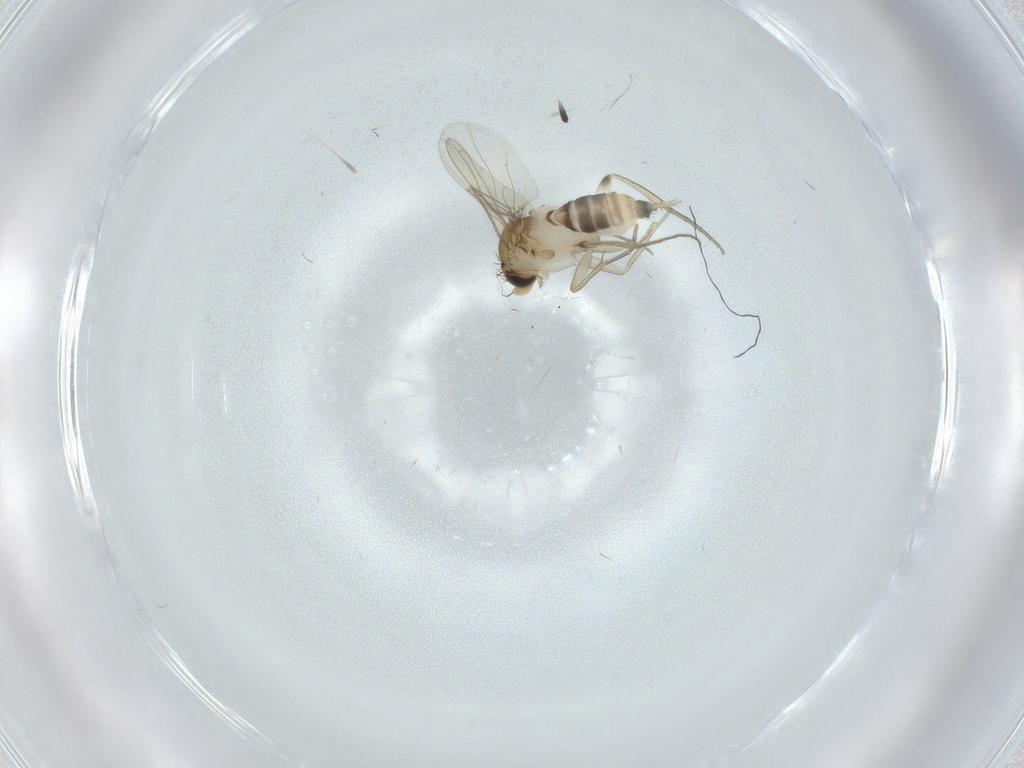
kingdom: Animalia
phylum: Arthropoda
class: Insecta
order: Diptera
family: Phoridae
